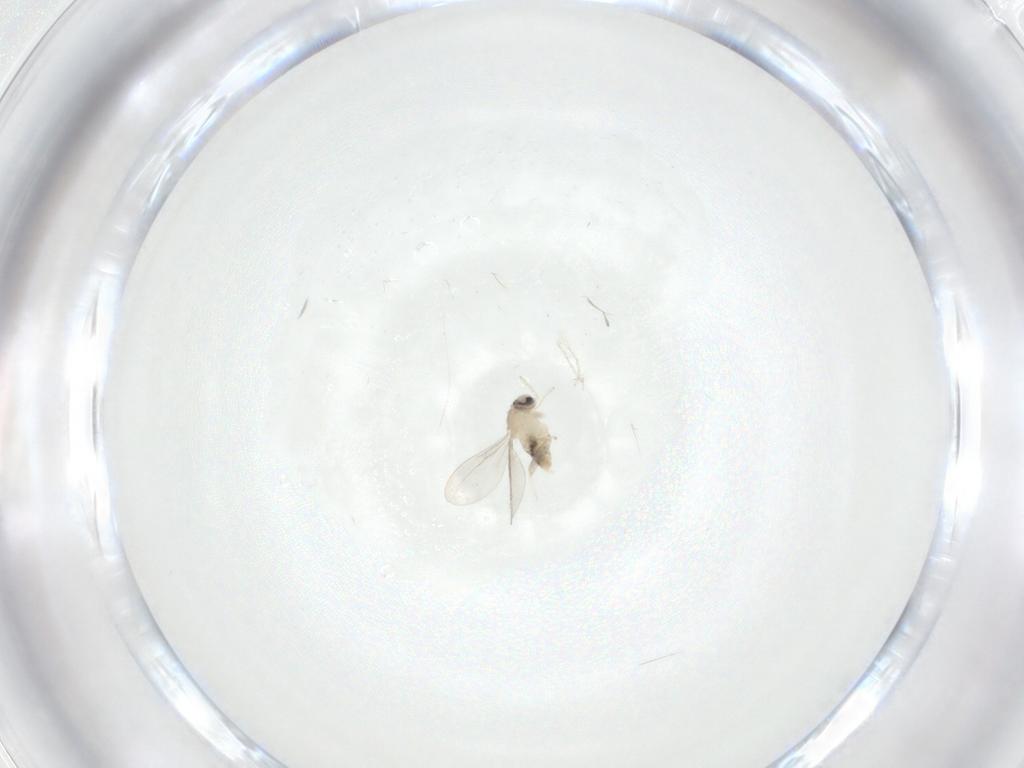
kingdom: Animalia
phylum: Arthropoda
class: Insecta
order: Diptera
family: Cecidomyiidae
